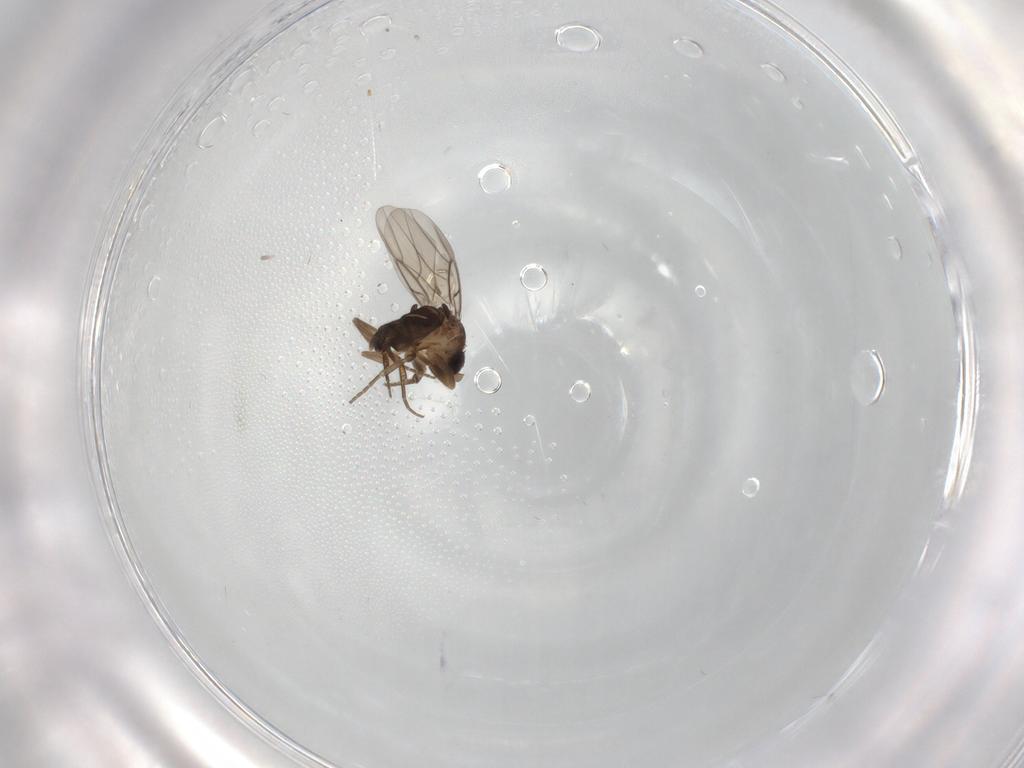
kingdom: Animalia
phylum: Arthropoda
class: Insecta
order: Diptera
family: Phoridae
